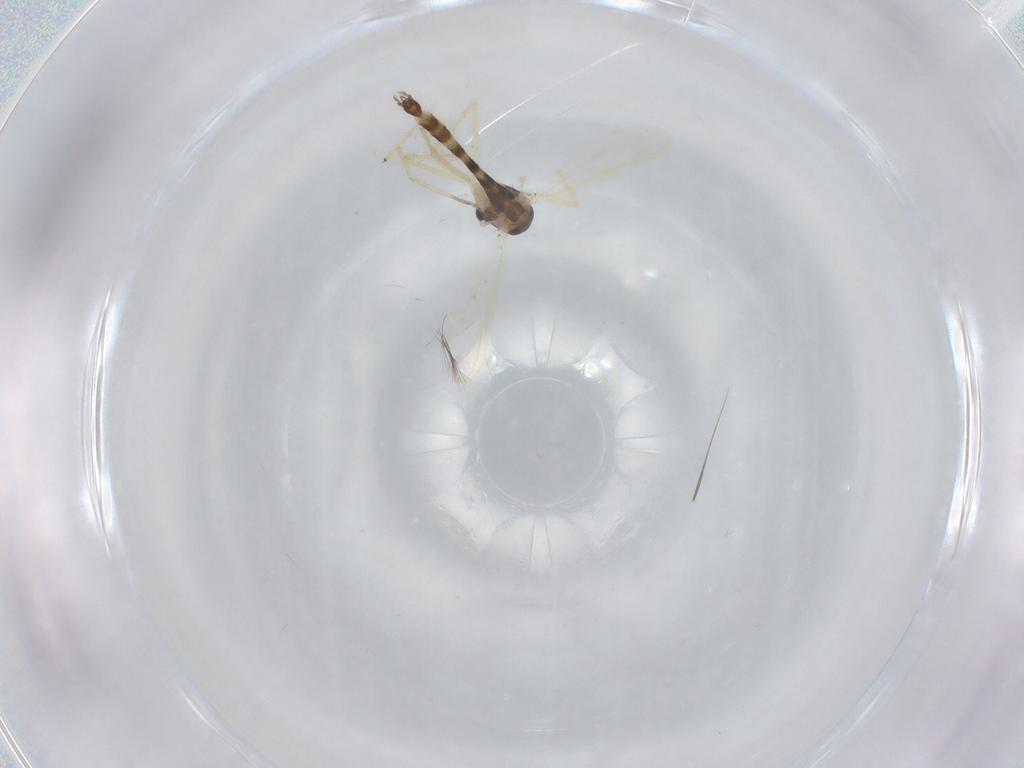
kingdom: Animalia
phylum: Arthropoda
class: Insecta
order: Diptera
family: Chironomidae
